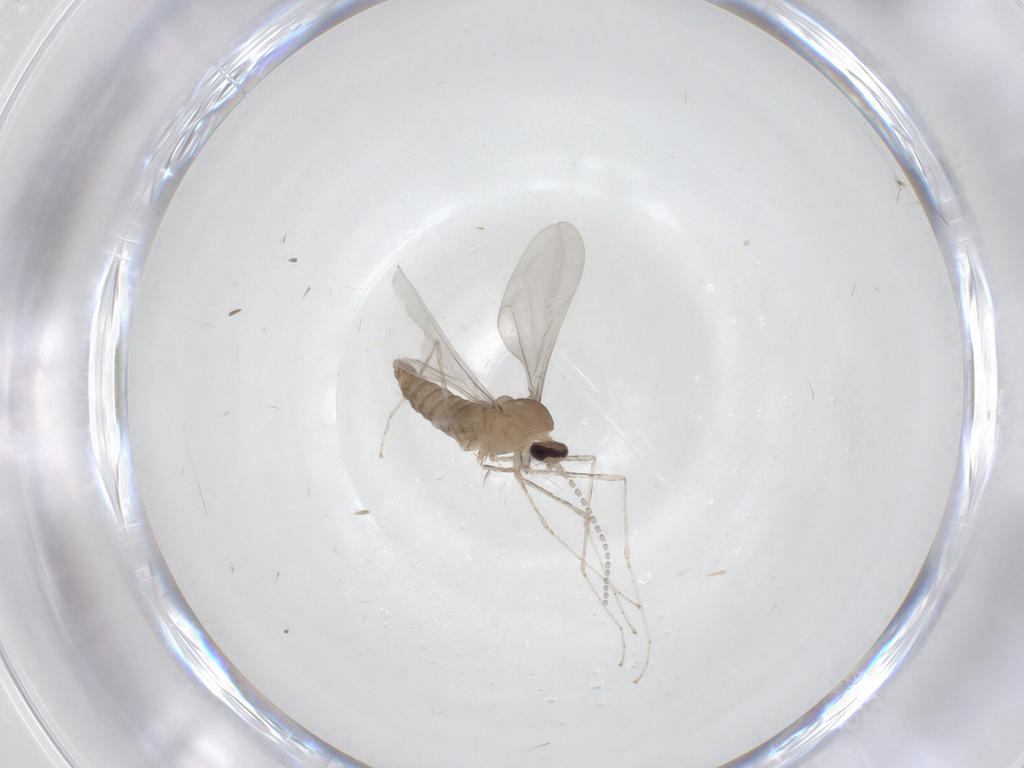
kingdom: Animalia
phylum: Arthropoda
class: Insecta
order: Diptera
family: Cecidomyiidae
